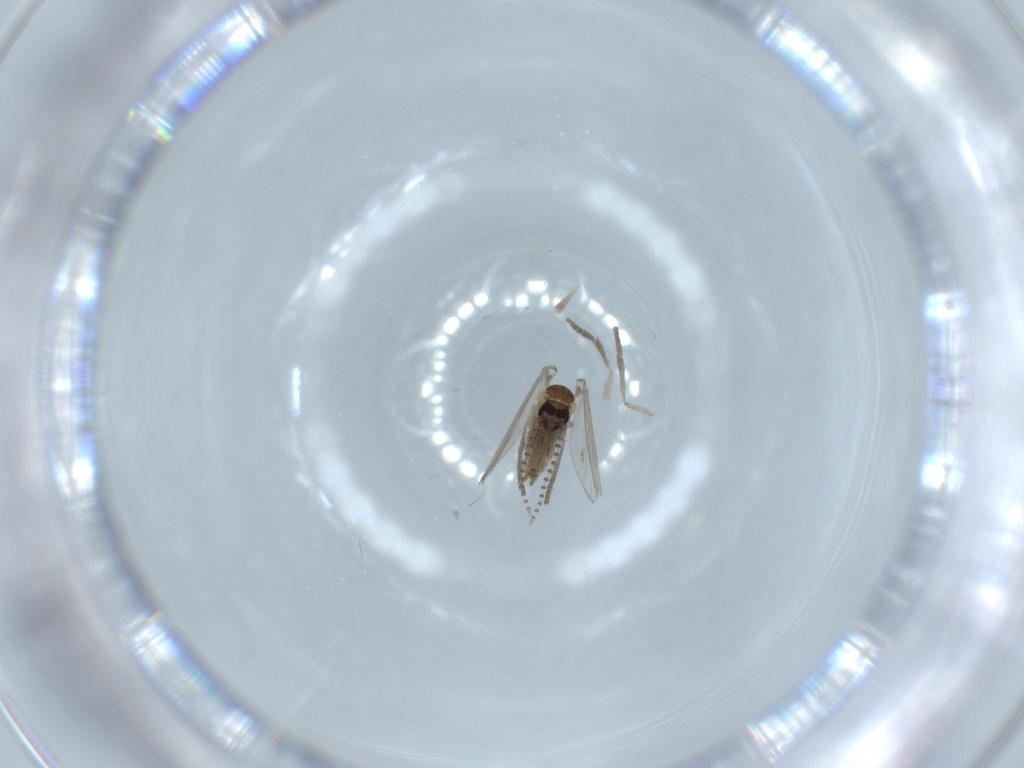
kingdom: Animalia
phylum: Arthropoda
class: Insecta
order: Diptera
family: Psychodidae
